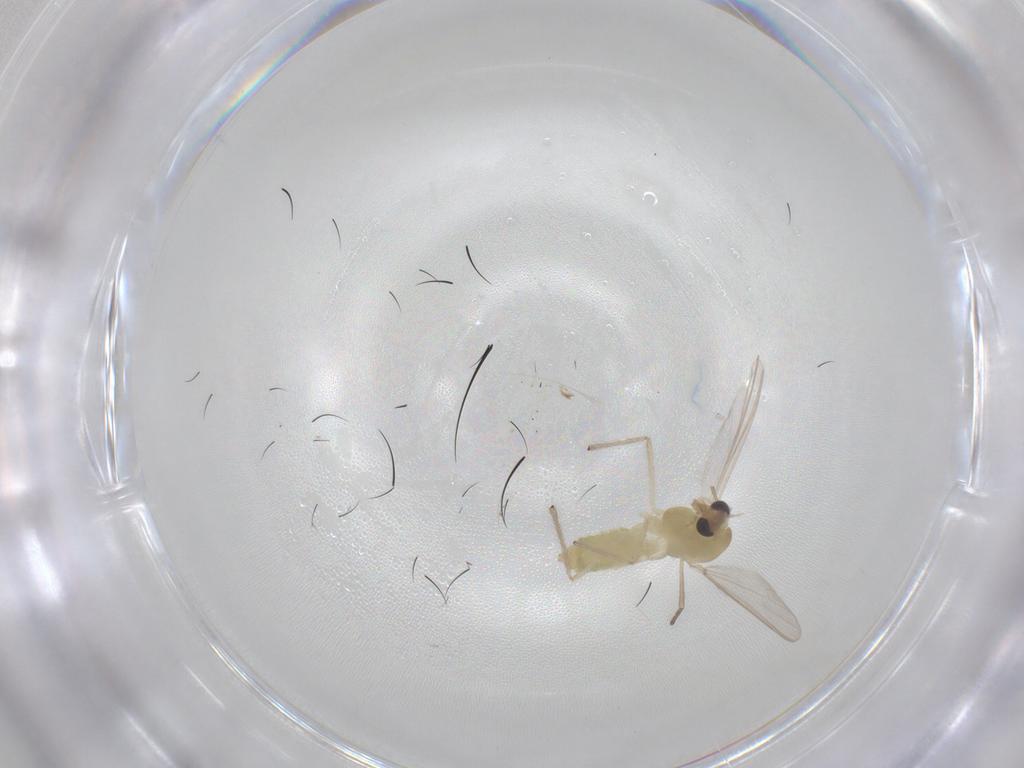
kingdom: Animalia
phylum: Arthropoda
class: Insecta
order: Diptera
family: Chironomidae
